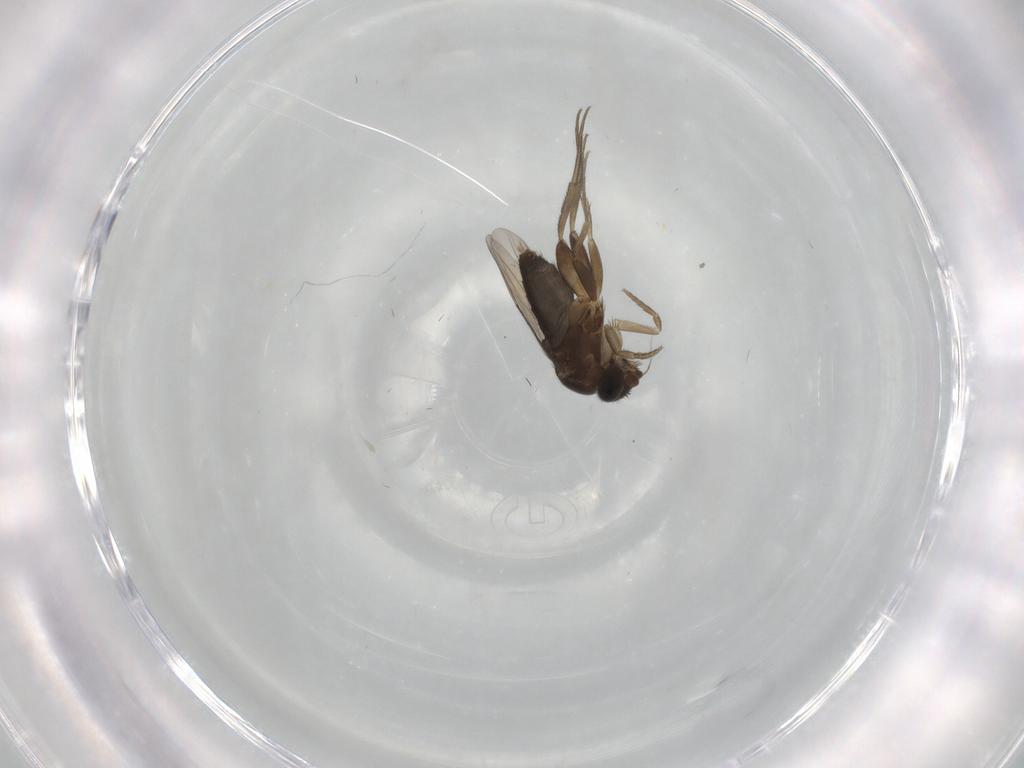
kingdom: Animalia
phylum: Arthropoda
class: Insecta
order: Diptera
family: Phoridae
